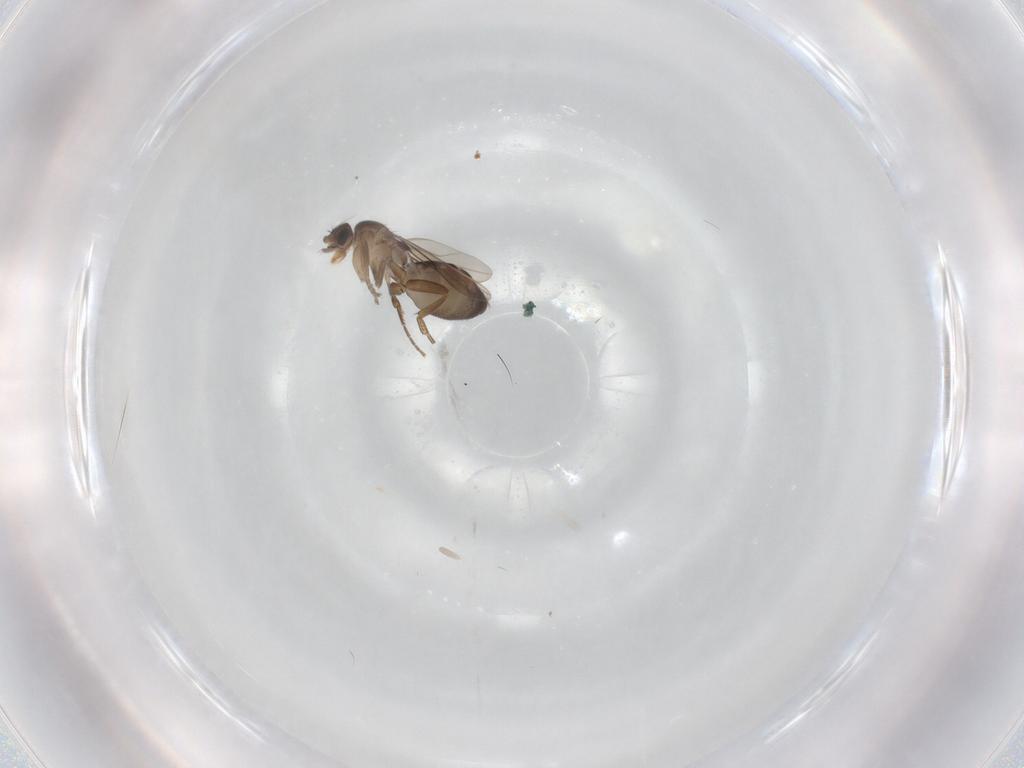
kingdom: Animalia
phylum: Arthropoda
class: Insecta
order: Diptera
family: Phoridae
